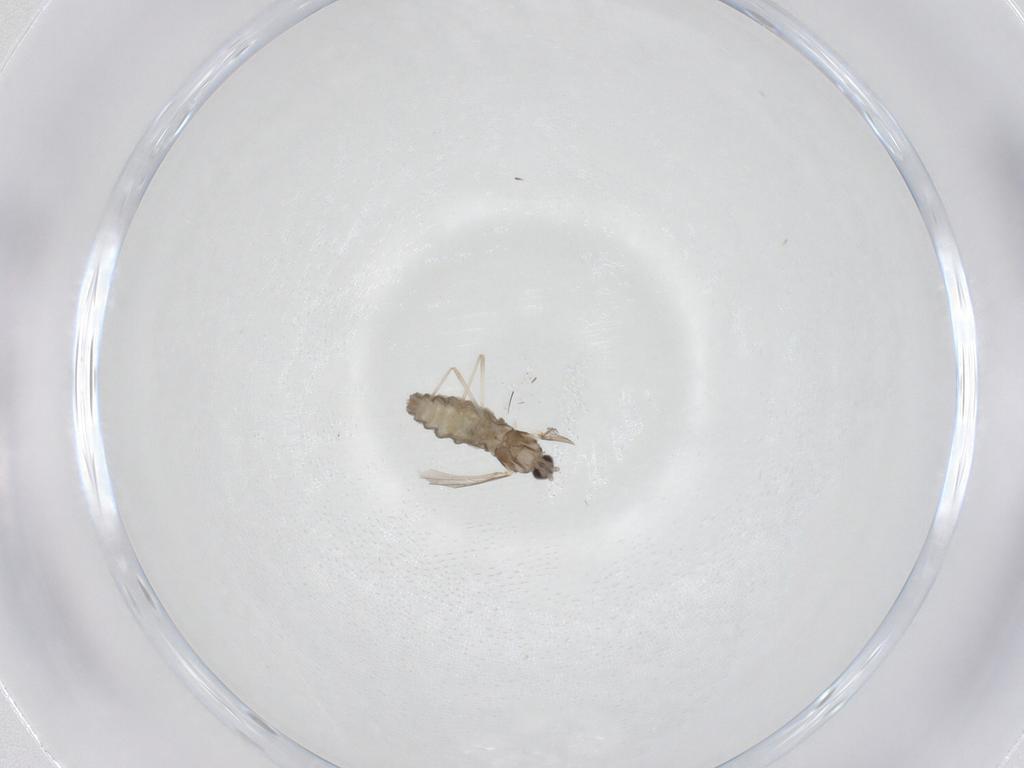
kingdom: Animalia
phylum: Arthropoda
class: Insecta
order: Diptera
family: Cecidomyiidae
